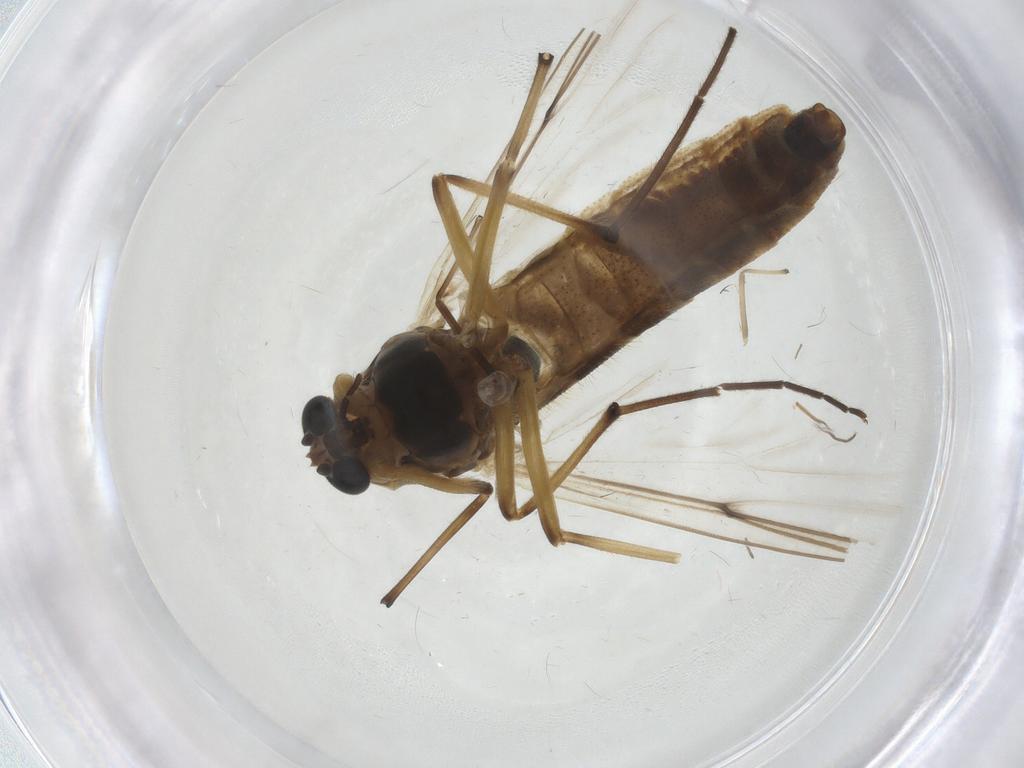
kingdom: Animalia
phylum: Arthropoda
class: Insecta
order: Diptera
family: Chironomidae
